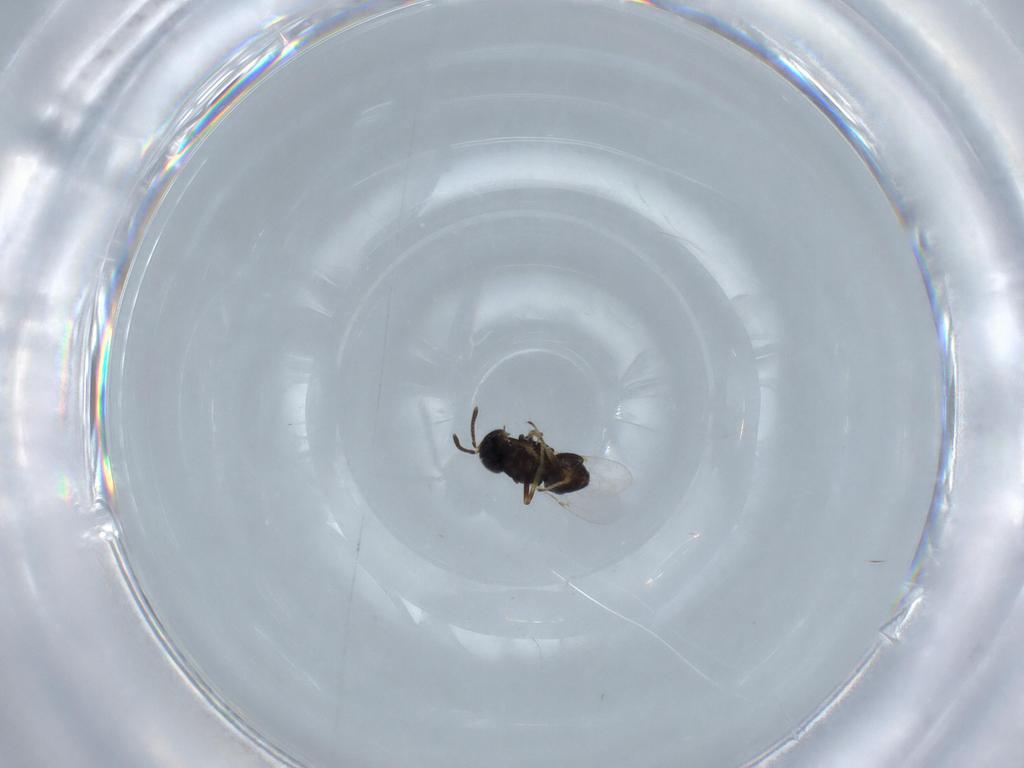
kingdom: Animalia
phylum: Arthropoda
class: Insecta
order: Hymenoptera
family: Encyrtidae
